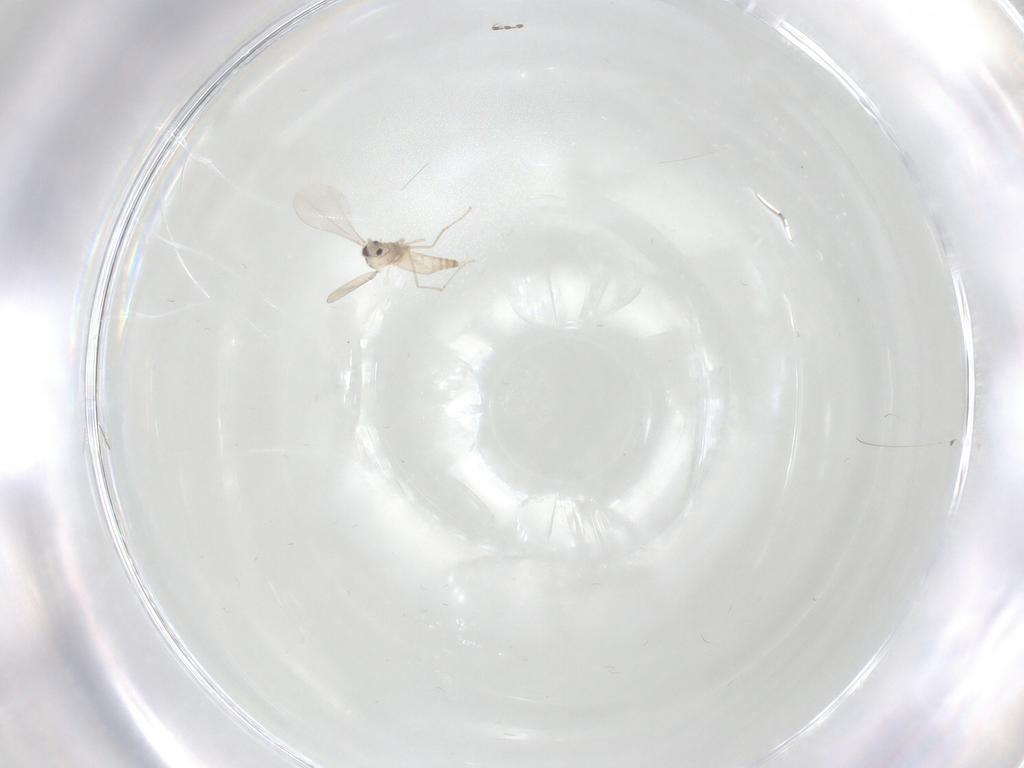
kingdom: Animalia
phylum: Arthropoda
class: Insecta
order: Diptera
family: Cecidomyiidae
